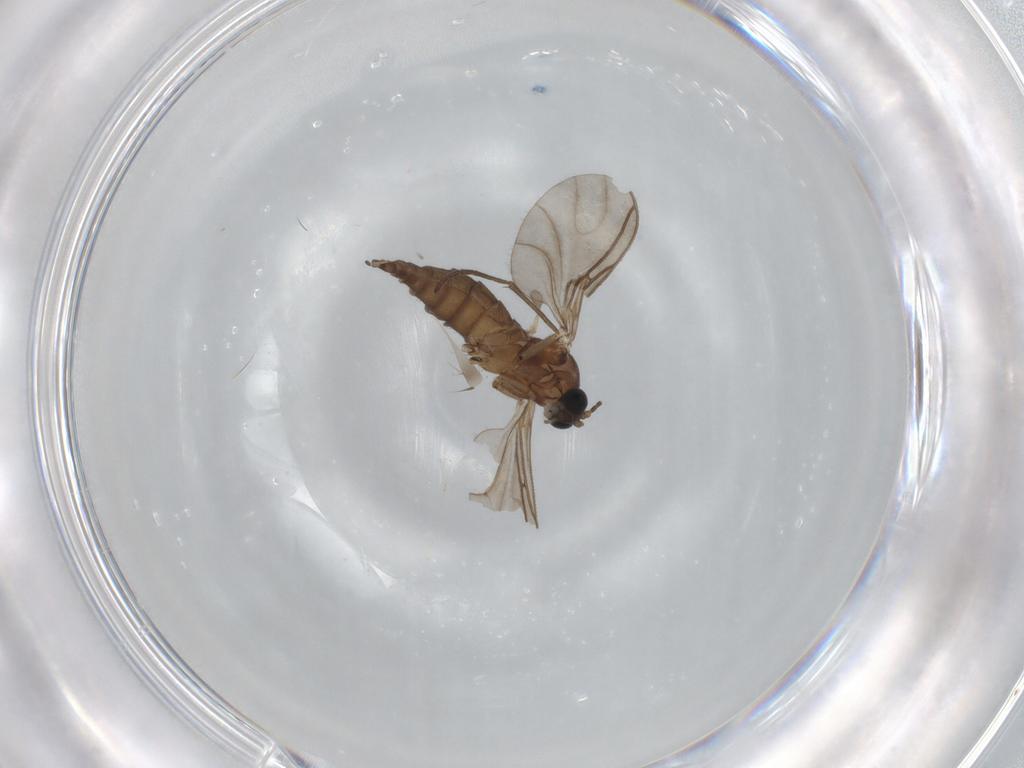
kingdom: Animalia
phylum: Arthropoda
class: Insecta
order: Diptera
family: Sciaridae
